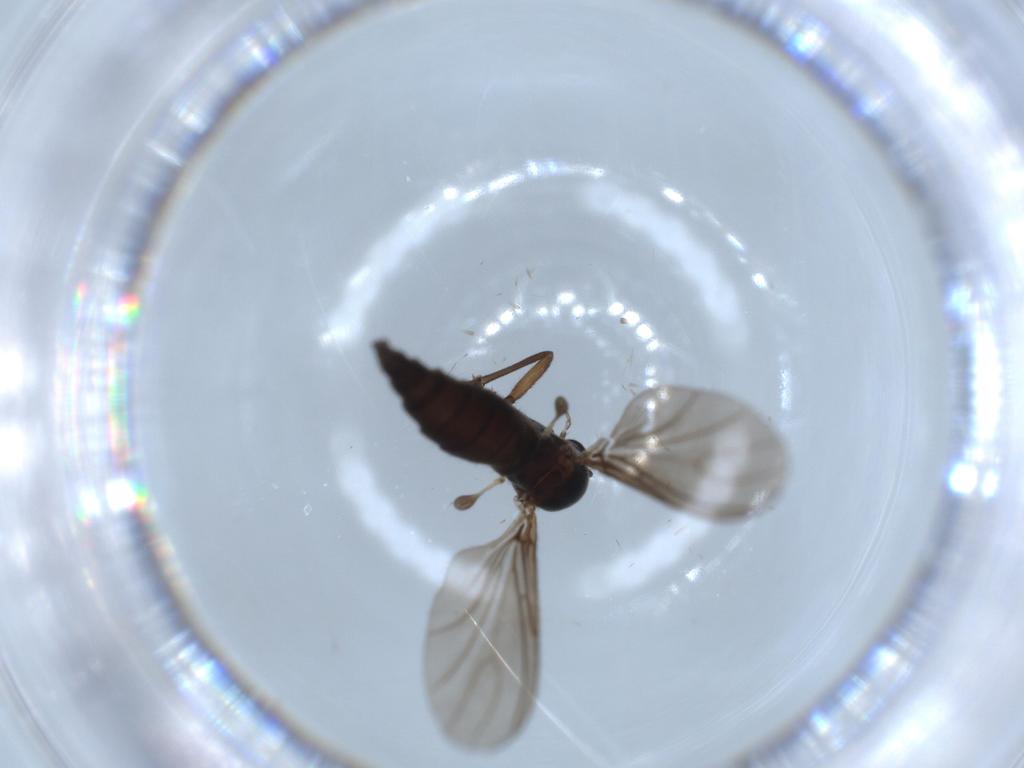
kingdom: Animalia
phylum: Arthropoda
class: Insecta
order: Diptera
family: Sciaridae
